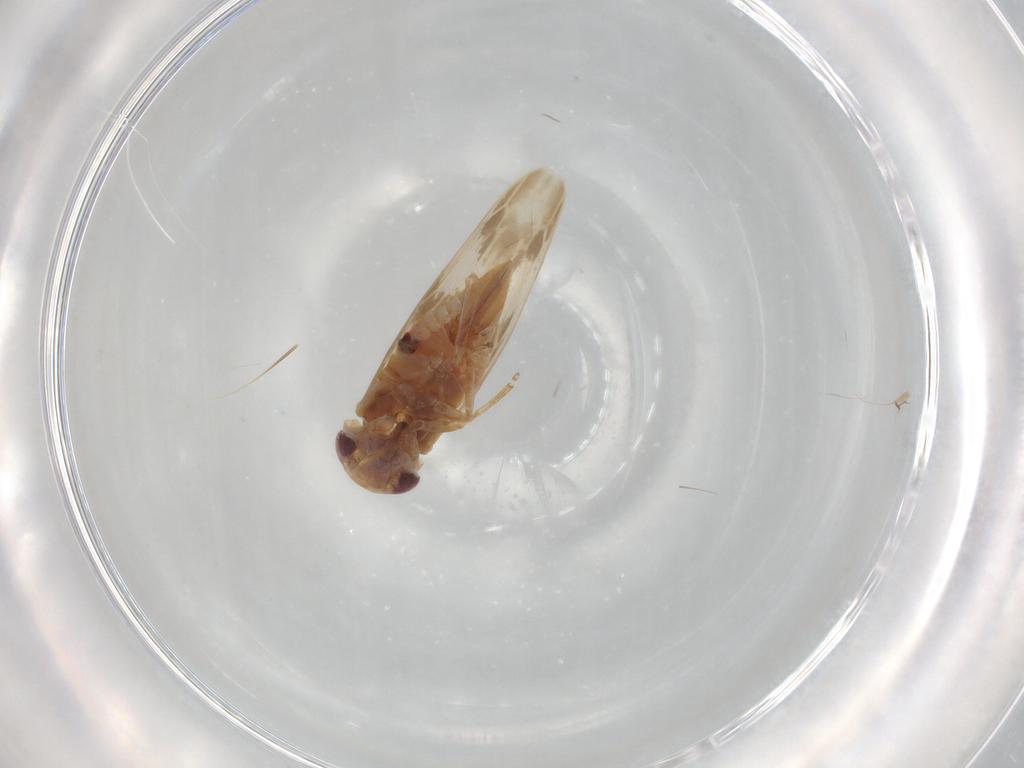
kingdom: Animalia
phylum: Arthropoda
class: Insecta
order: Hemiptera
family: Cicadellidae
